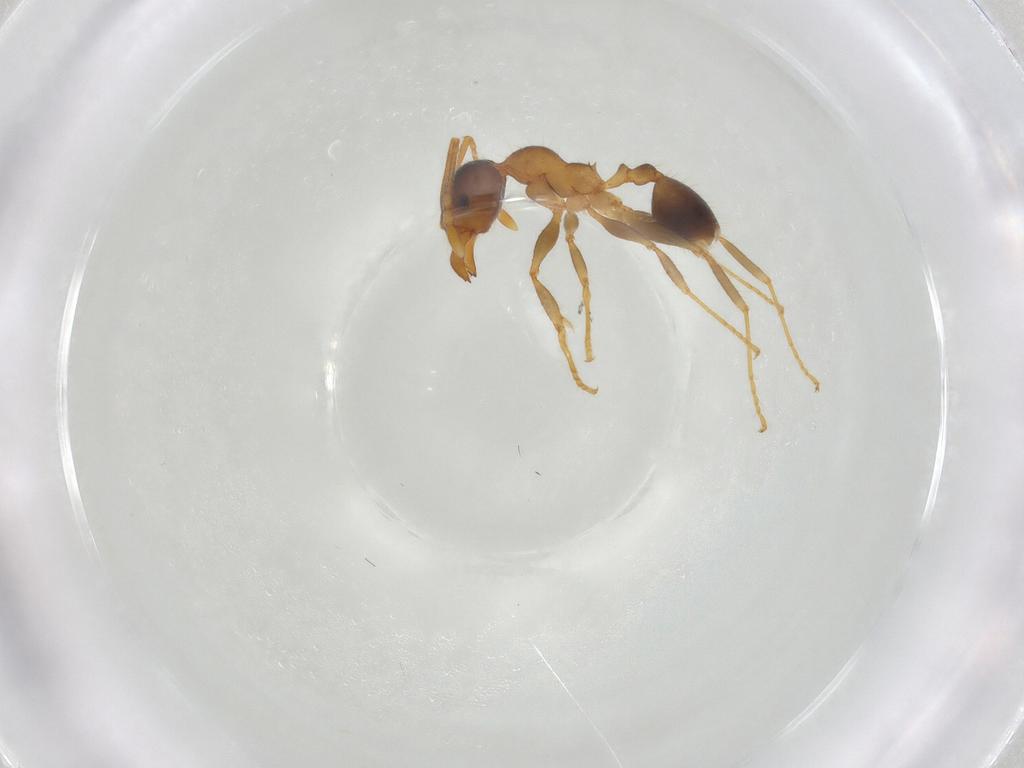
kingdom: Animalia
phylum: Arthropoda
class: Insecta
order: Hymenoptera
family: Formicidae
